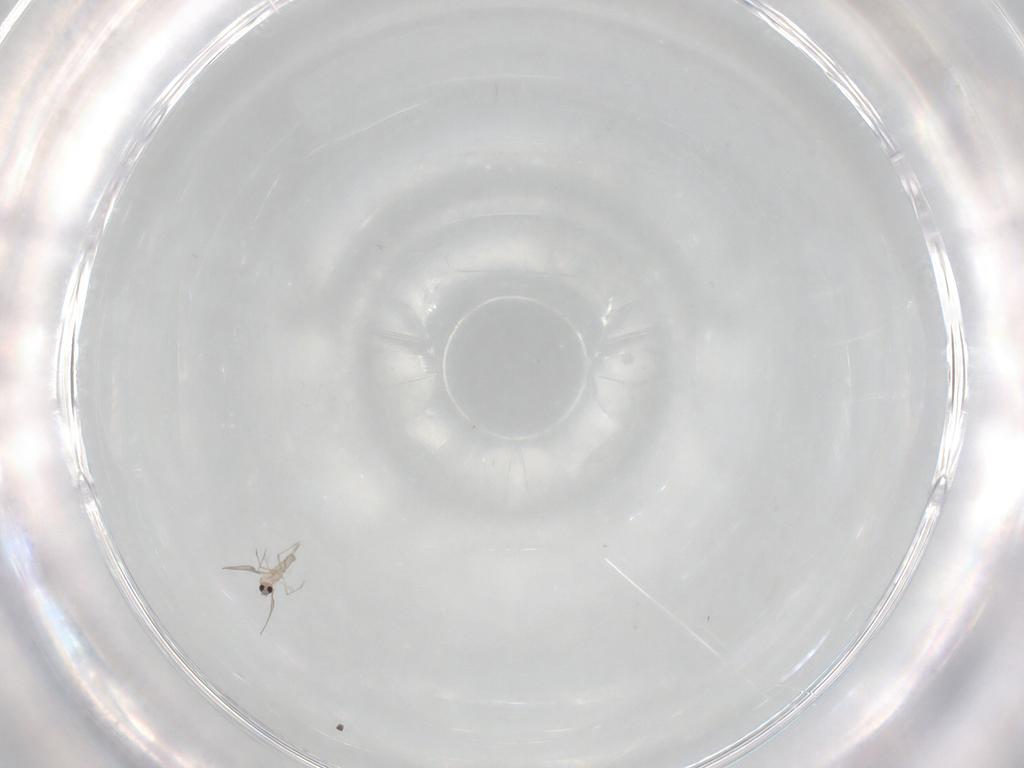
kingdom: Animalia
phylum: Arthropoda
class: Insecta
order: Diptera
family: Cecidomyiidae
